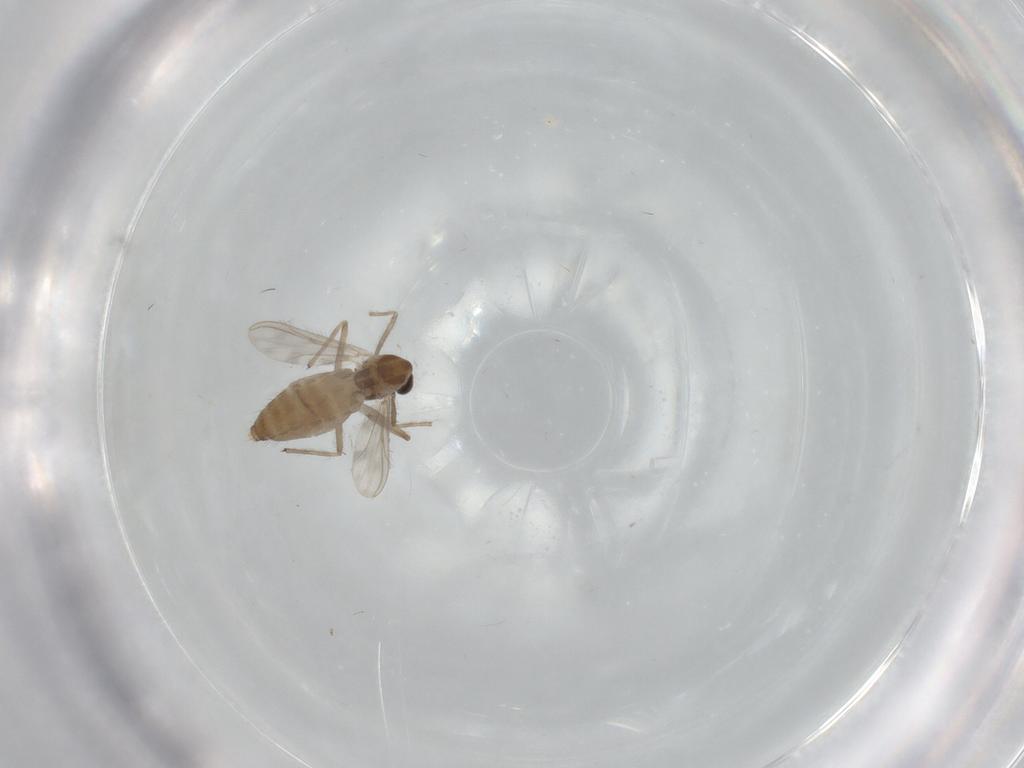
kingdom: Animalia
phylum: Arthropoda
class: Insecta
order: Diptera
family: Chironomidae
